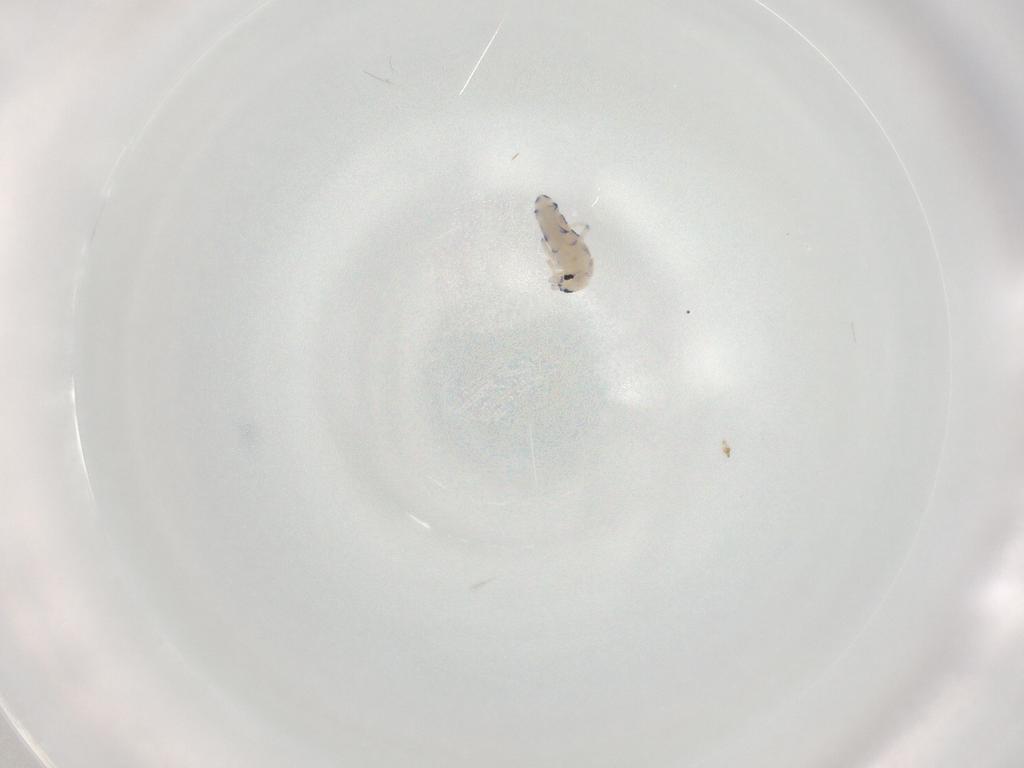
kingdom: Animalia
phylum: Arthropoda
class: Collembola
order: Entomobryomorpha
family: Entomobryidae
